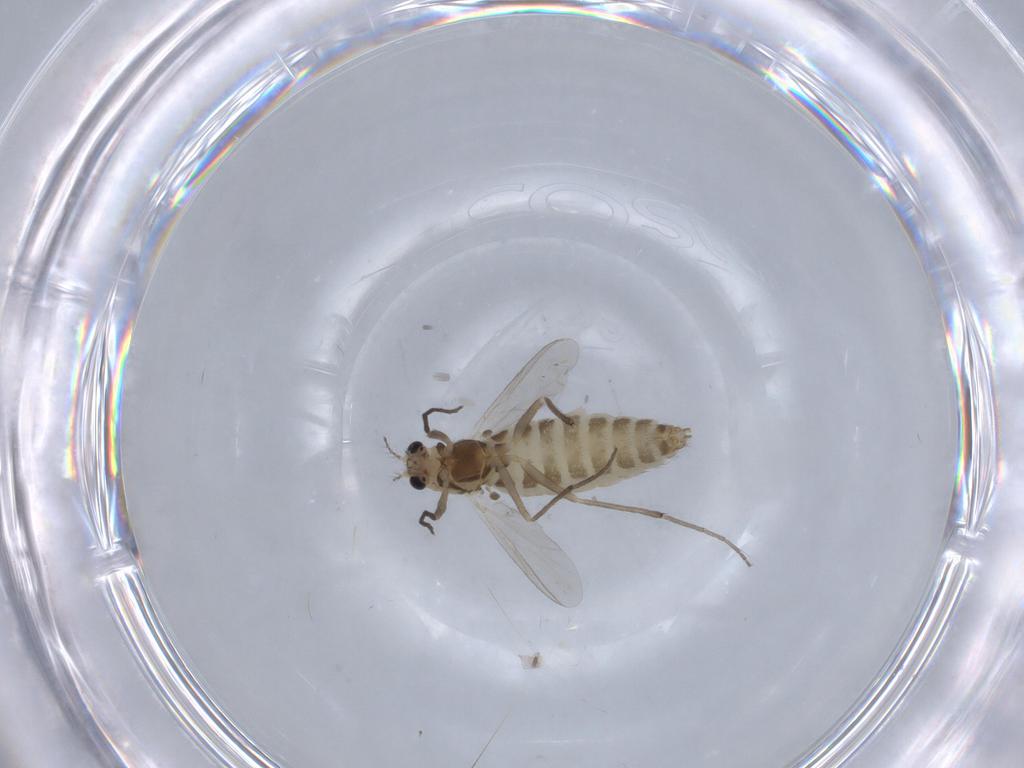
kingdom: Animalia
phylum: Arthropoda
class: Insecta
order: Diptera
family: Chironomidae
